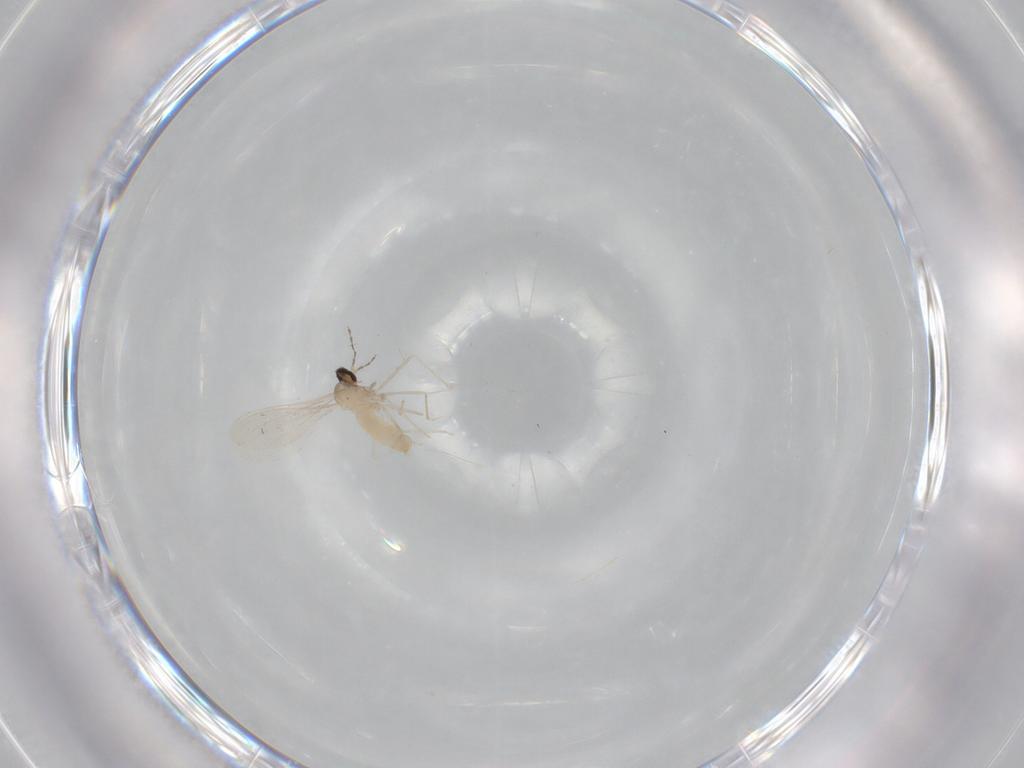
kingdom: Animalia
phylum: Arthropoda
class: Insecta
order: Diptera
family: Cecidomyiidae
